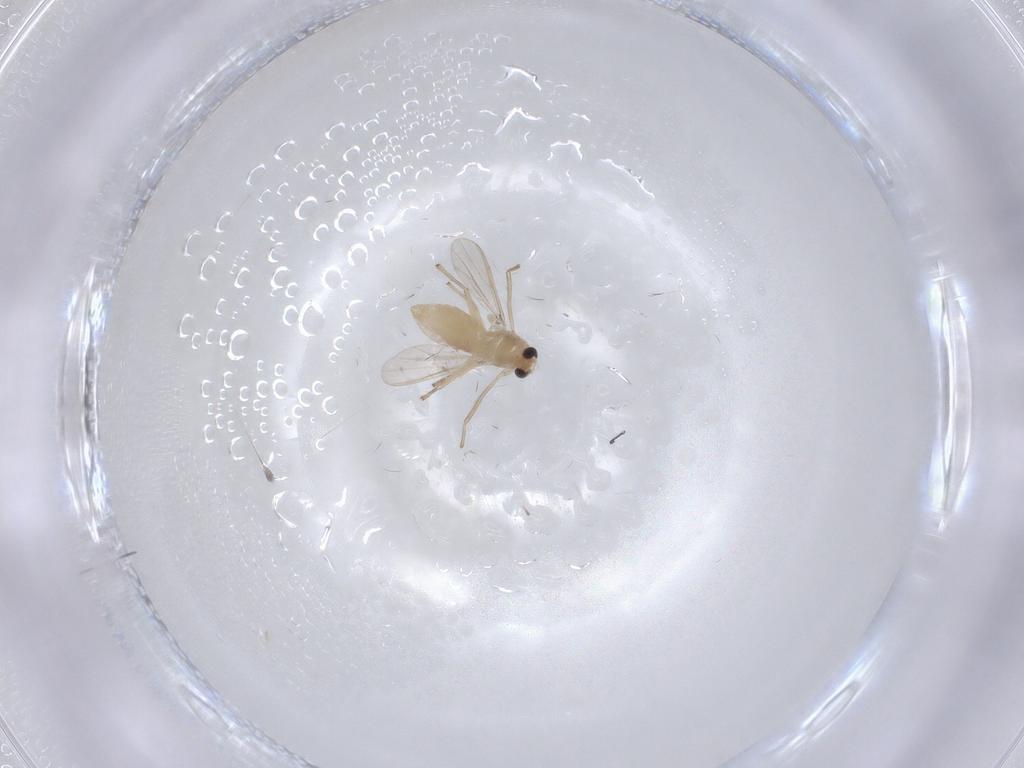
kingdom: Animalia
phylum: Arthropoda
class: Insecta
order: Diptera
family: Chironomidae
